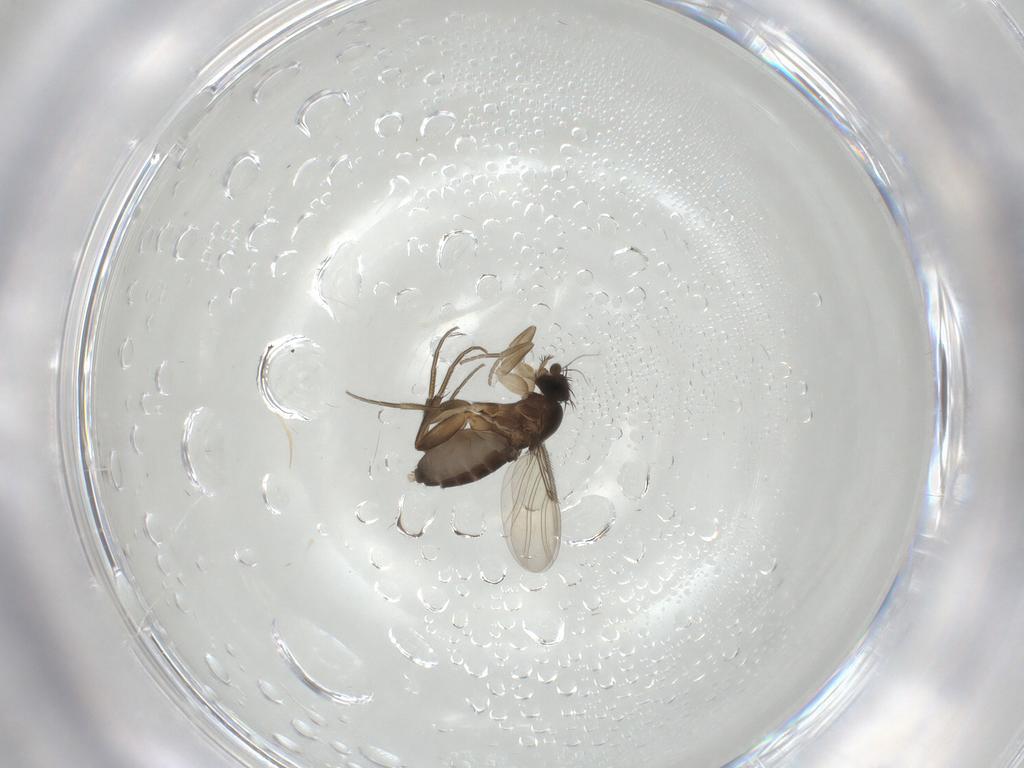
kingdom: Animalia
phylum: Arthropoda
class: Insecta
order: Diptera
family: Phoridae
